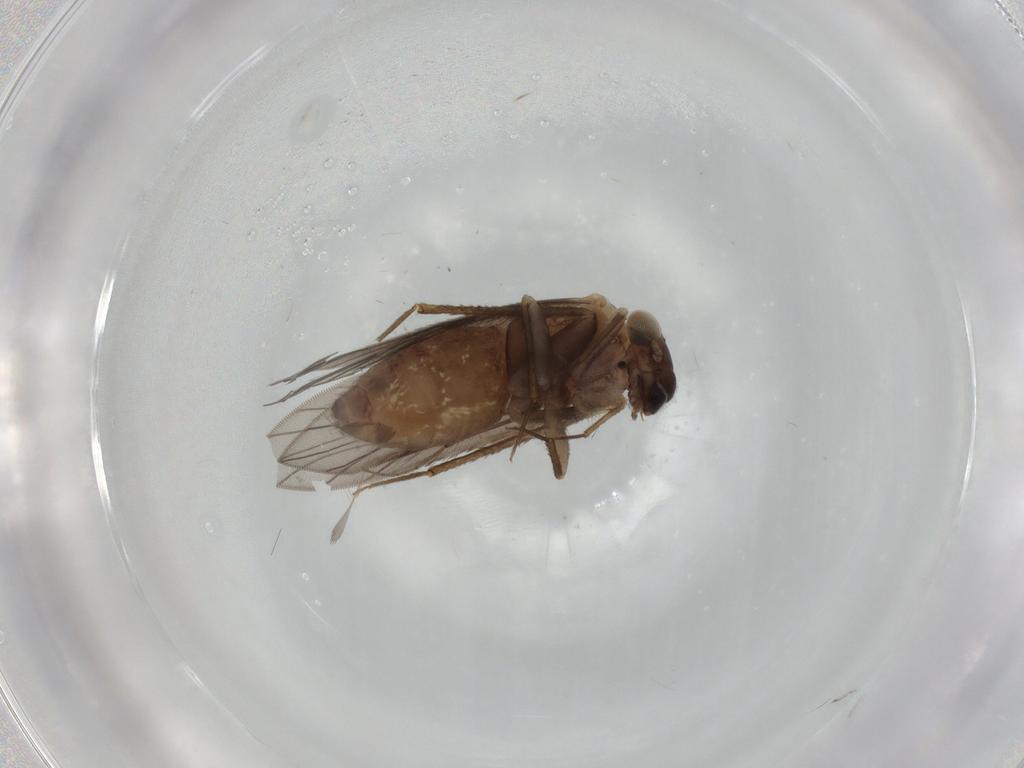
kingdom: Animalia
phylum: Arthropoda
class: Insecta
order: Psocodea
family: Lepidopsocidae
